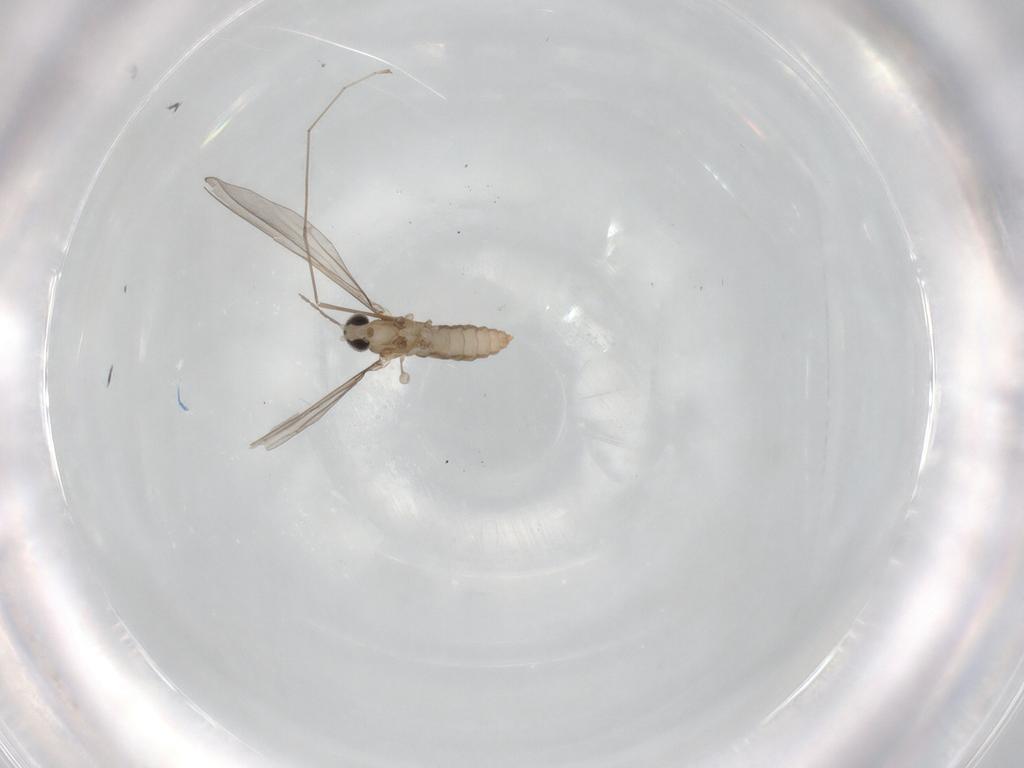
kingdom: Animalia
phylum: Arthropoda
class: Insecta
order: Diptera
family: Cecidomyiidae
